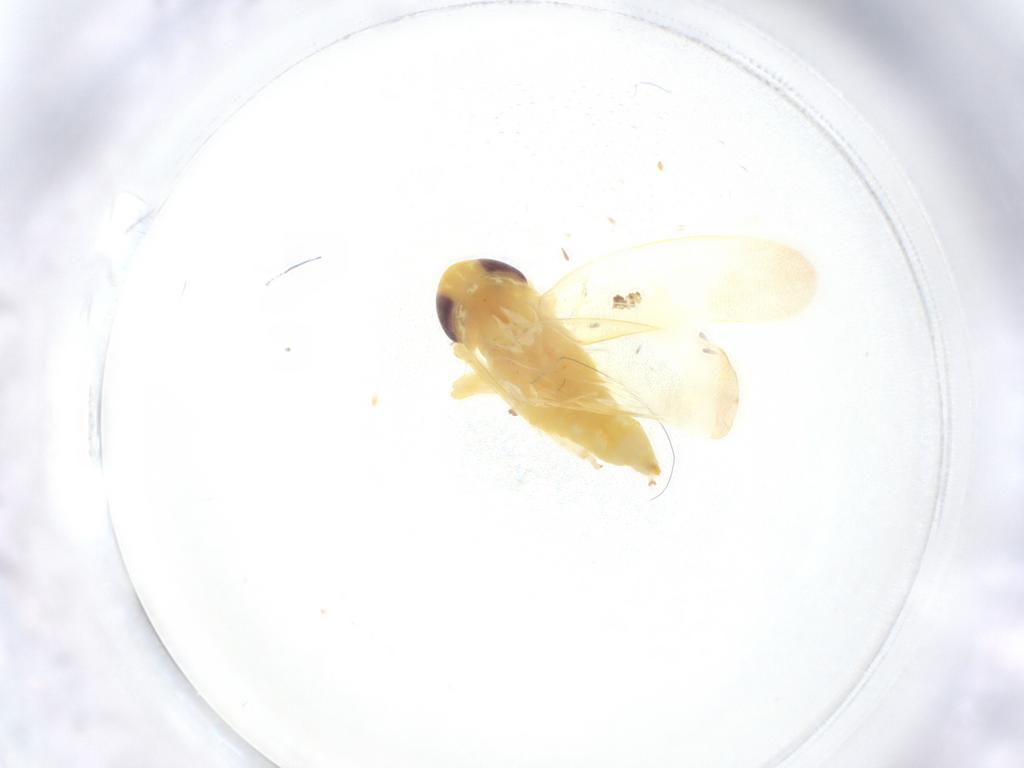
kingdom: Animalia
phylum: Arthropoda
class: Insecta
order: Hemiptera
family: Cicadellidae
